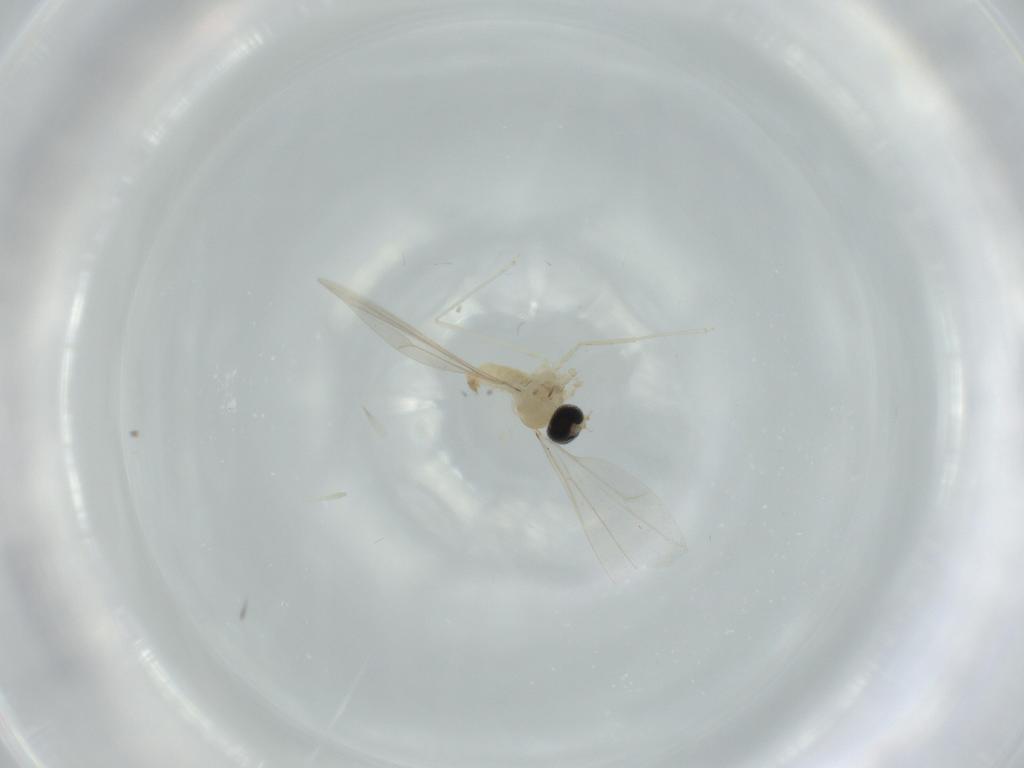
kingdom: Animalia
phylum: Arthropoda
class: Insecta
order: Diptera
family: Cecidomyiidae
